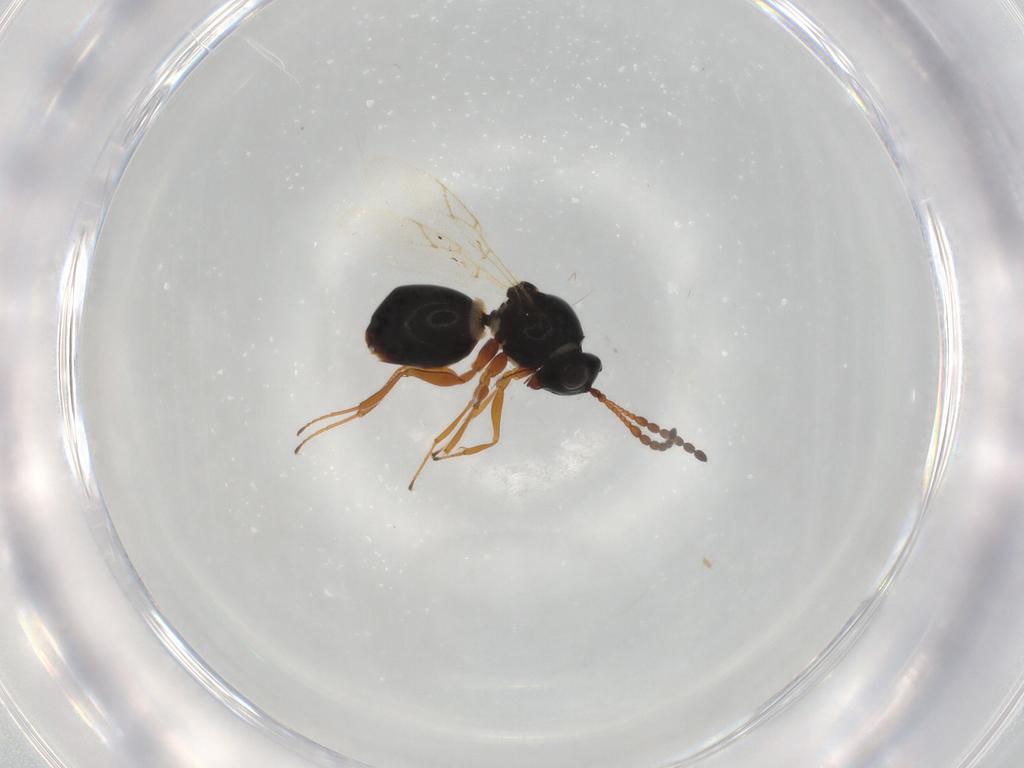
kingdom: Animalia
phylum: Arthropoda
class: Insecta
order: Hymenoptera
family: Figitidae
